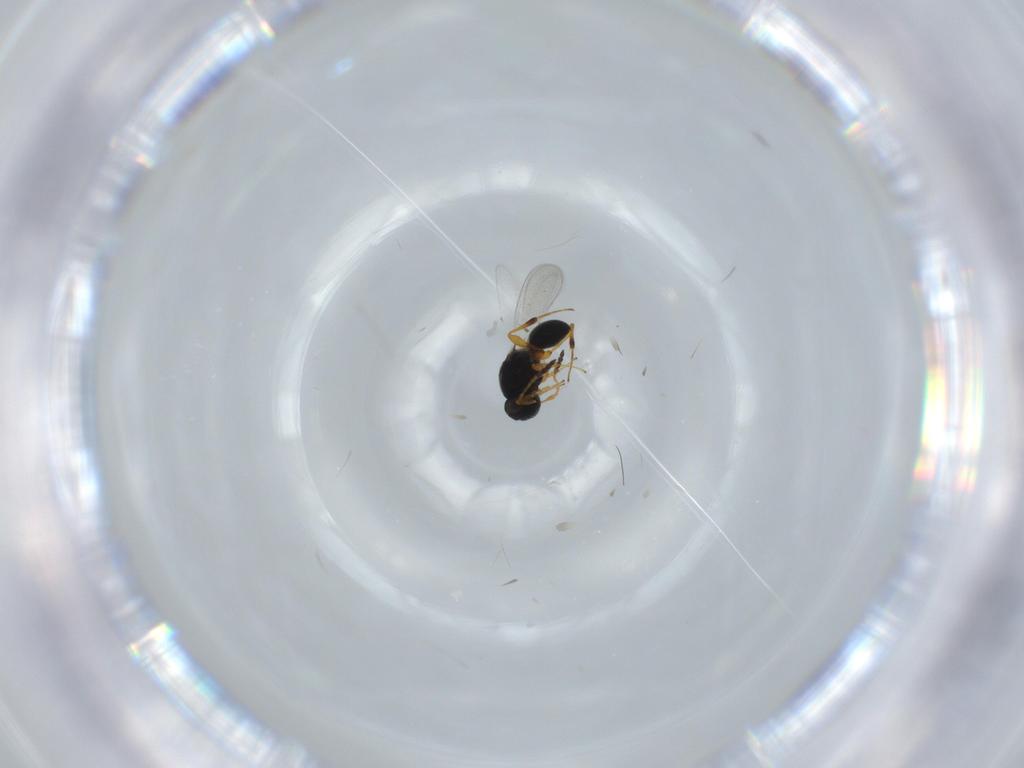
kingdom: Animalia
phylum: Arthropoda
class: Insecta
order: Hymenoptera
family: Platygastridae
